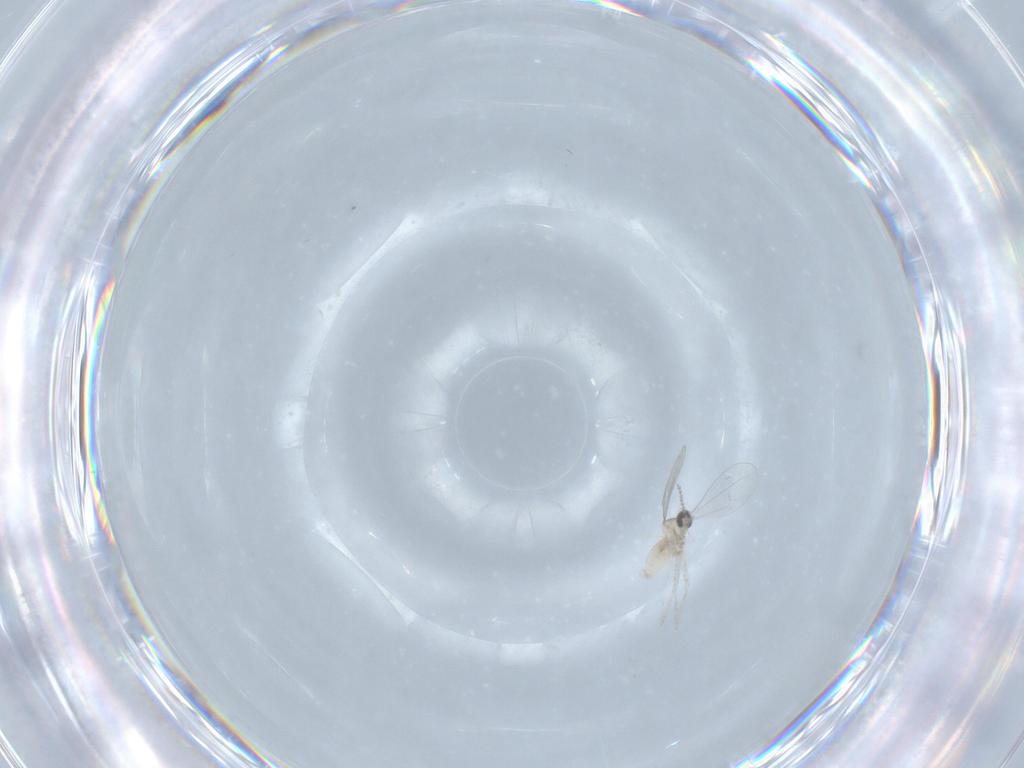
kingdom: Animalia
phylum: Arthropoda
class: Insecta
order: Diptera
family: Cecidomyiidae
